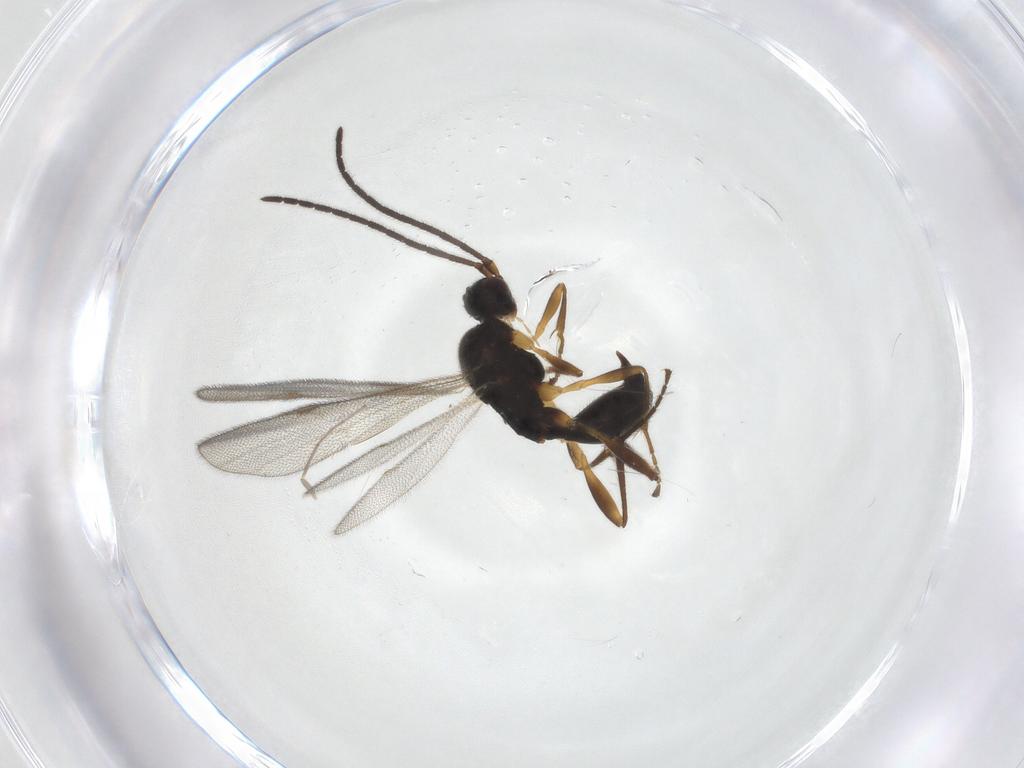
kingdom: Animalia
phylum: Arthropoda
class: Insecta
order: Hymenoptera
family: Proctotrupidae
